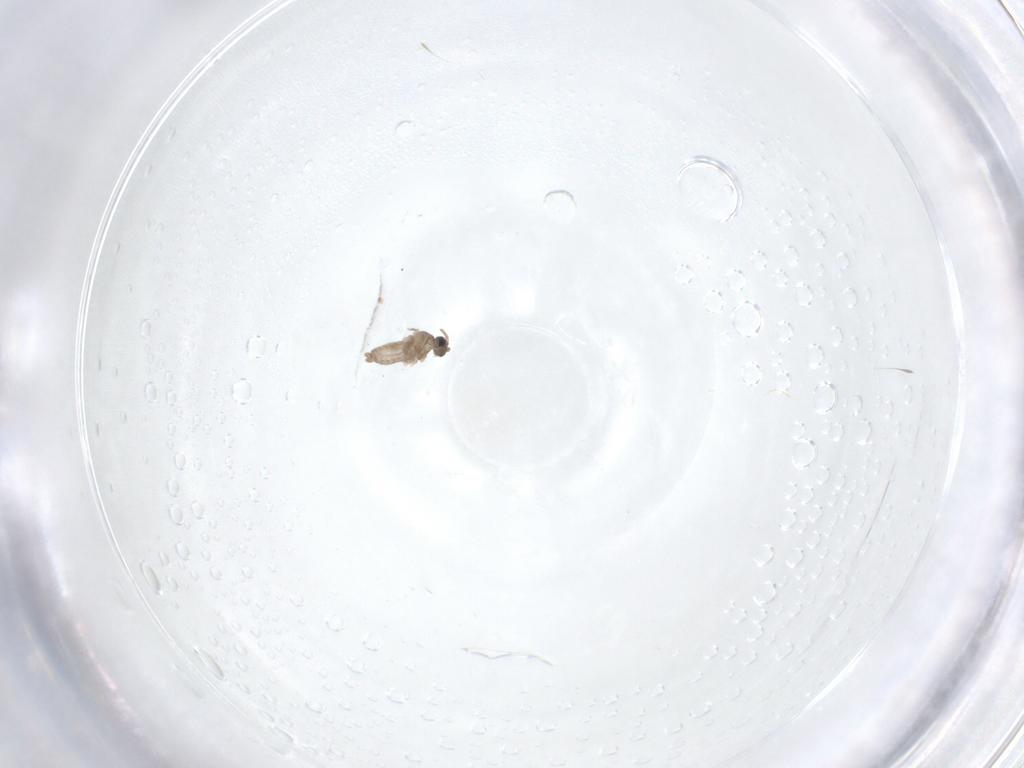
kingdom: Animalia
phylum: Arthropoda
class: Insecta
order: Diptera
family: Cecidomyiidae
